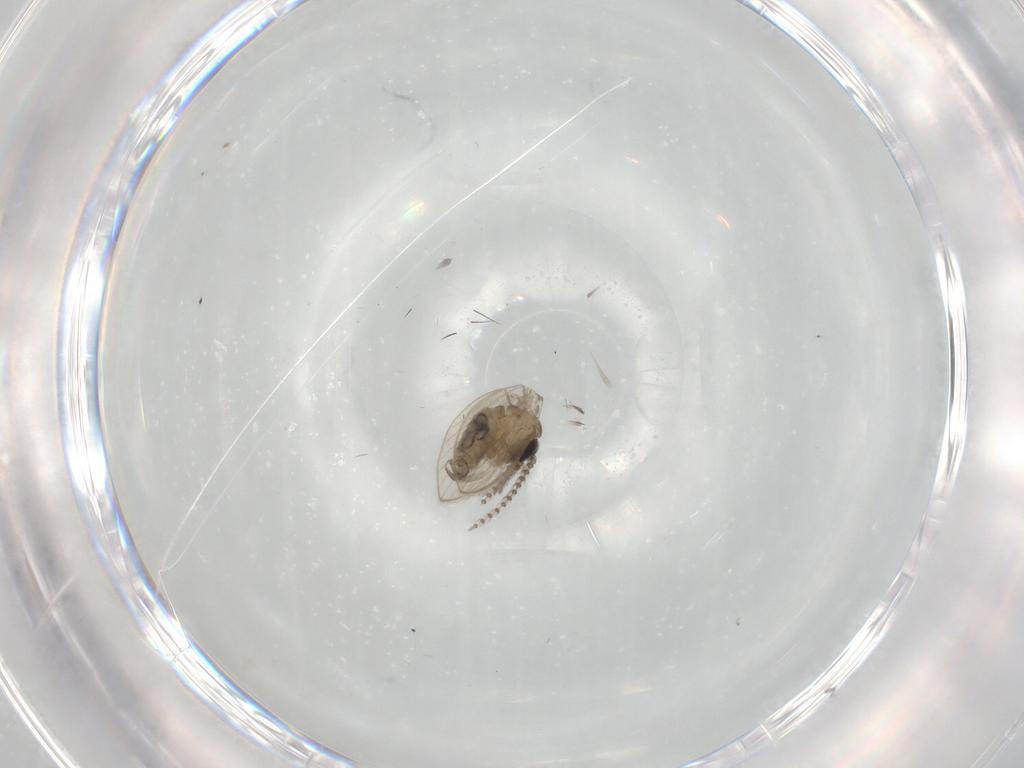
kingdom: Animalia
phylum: Arthropoda
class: Insecta
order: Diptera
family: Psychodidae
